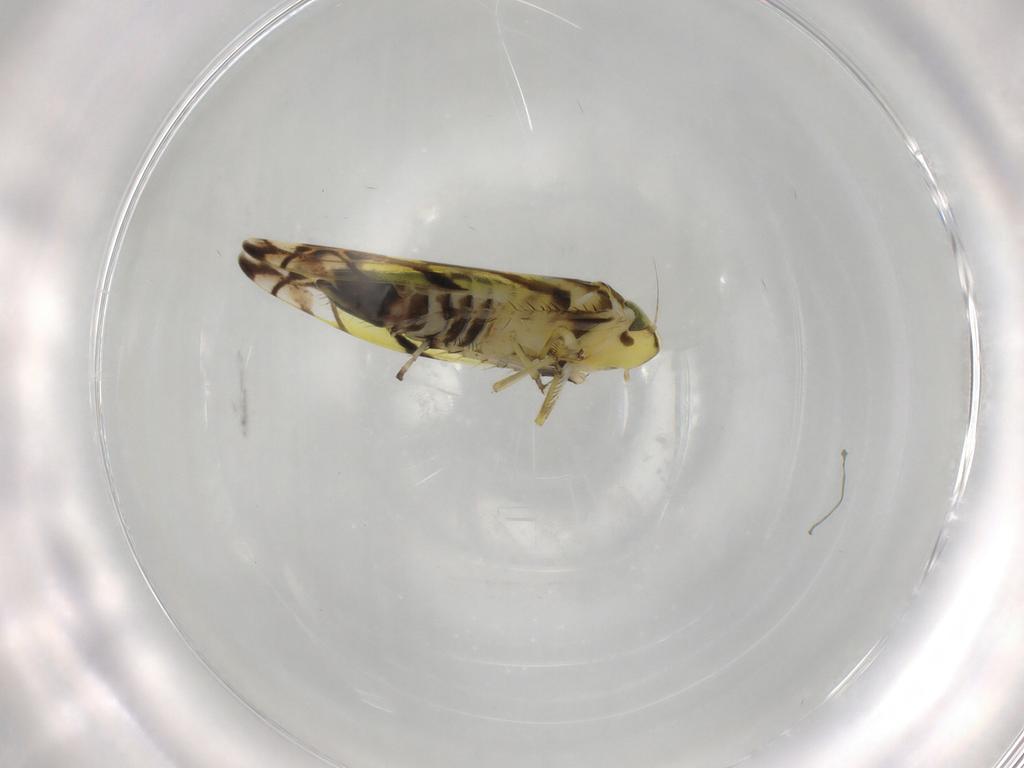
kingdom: Animalia
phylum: Arthropoda
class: Insecta
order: Hemiptera
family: Cicadellidae
